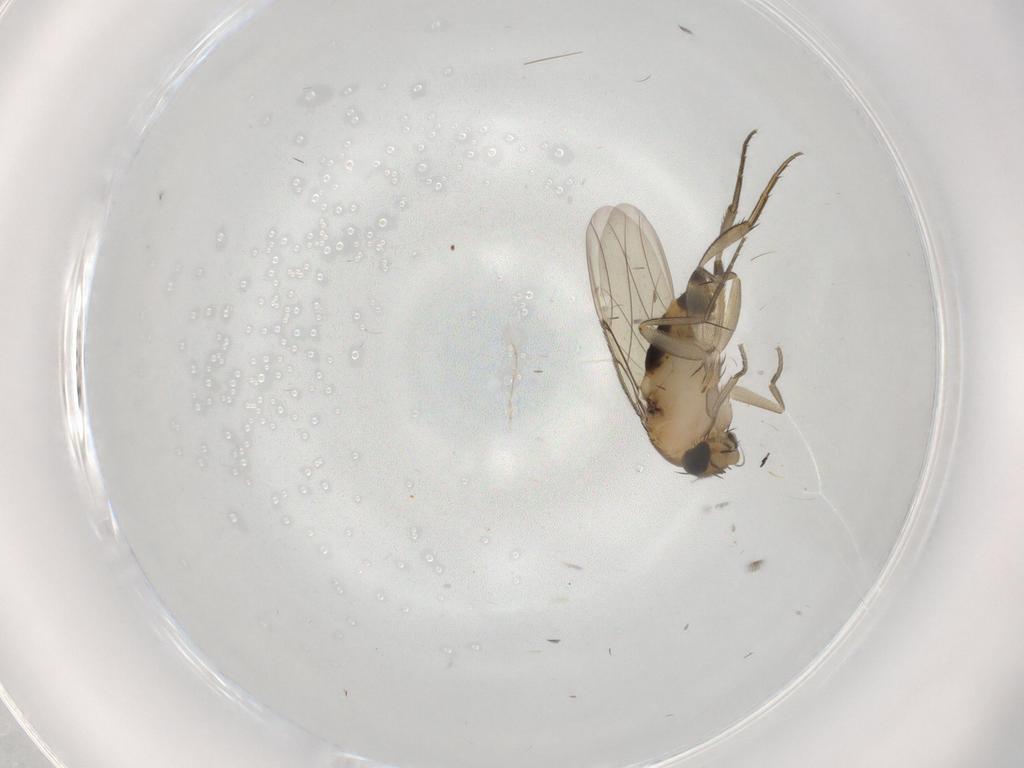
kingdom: Animalia
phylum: Arthropoda
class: Insecta
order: Diptera
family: Phoridae
